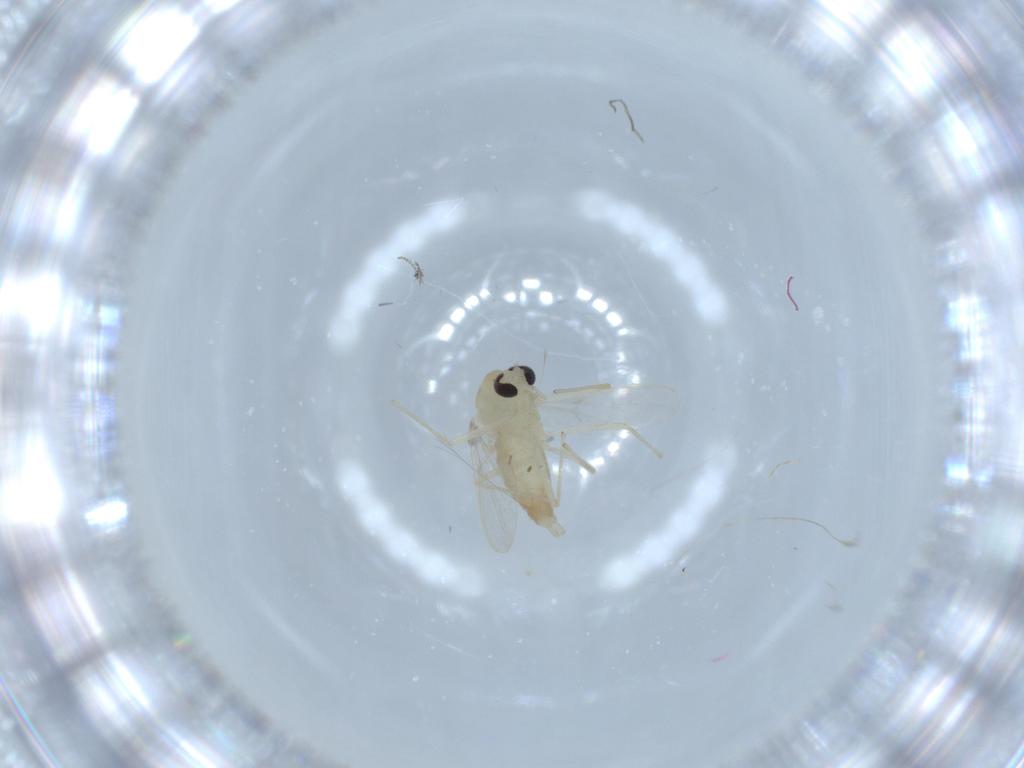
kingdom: Animalia
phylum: Arthropoda
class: Insecta
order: Diptera
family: Chironomidae
